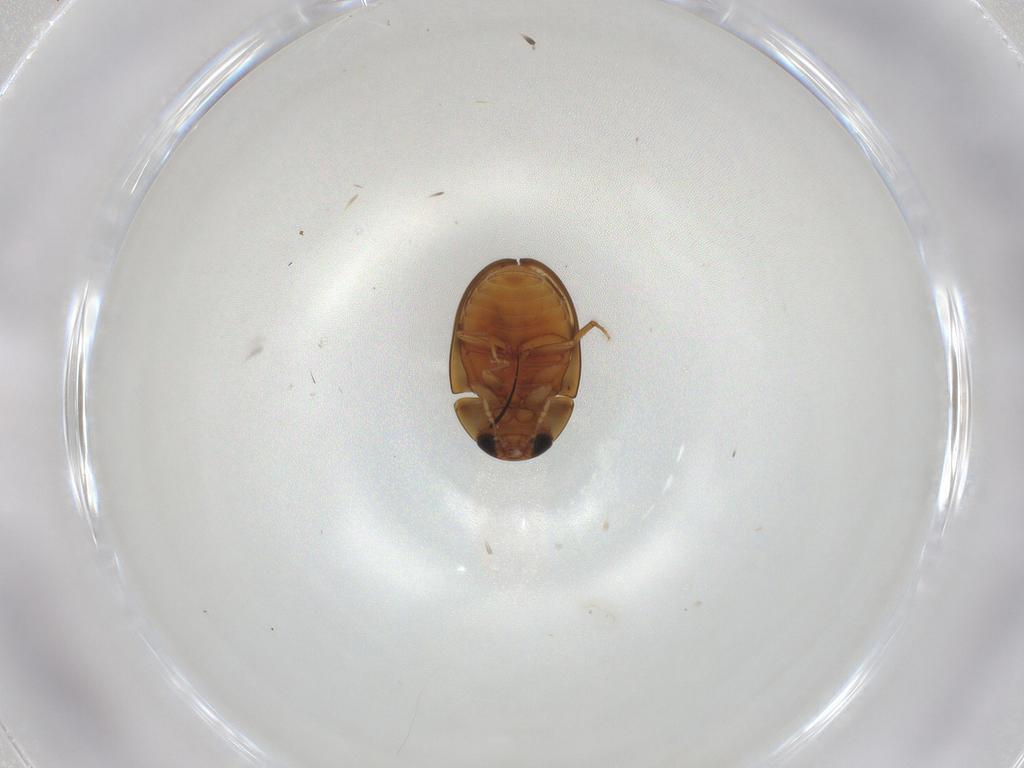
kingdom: Animalia
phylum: Arthropoda
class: Insecta
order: Coleoptera
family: Phalacridae
